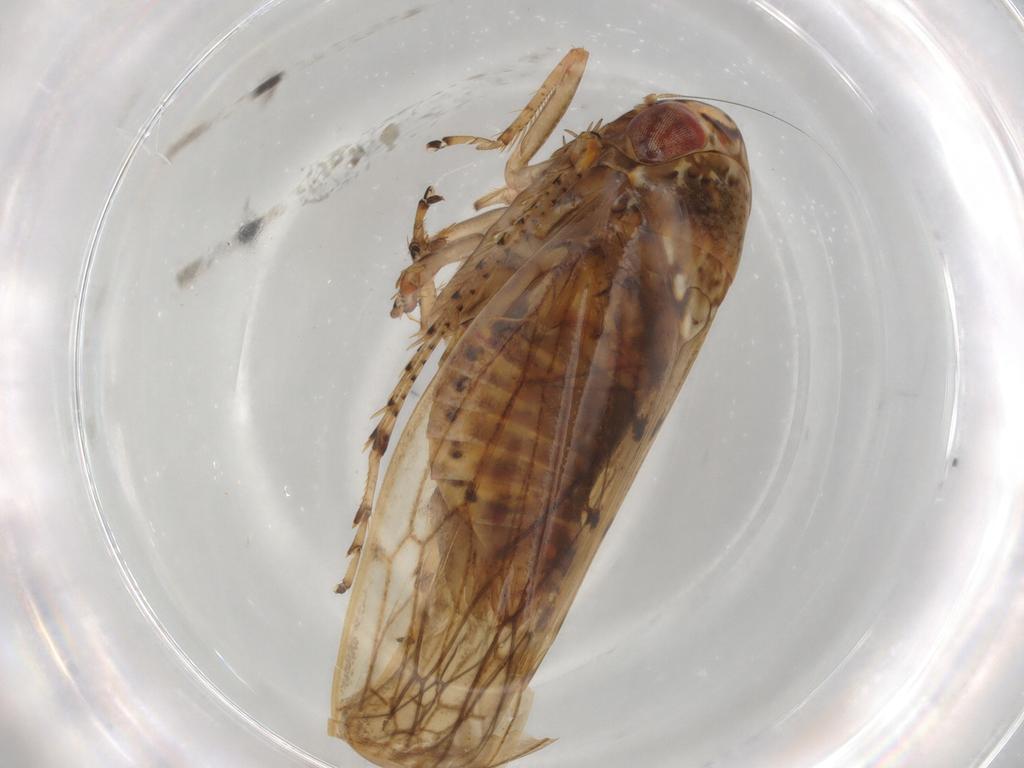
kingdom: Animalia
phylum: Arthropoda
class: Insecta
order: Hemiptera
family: Cicadellidae
